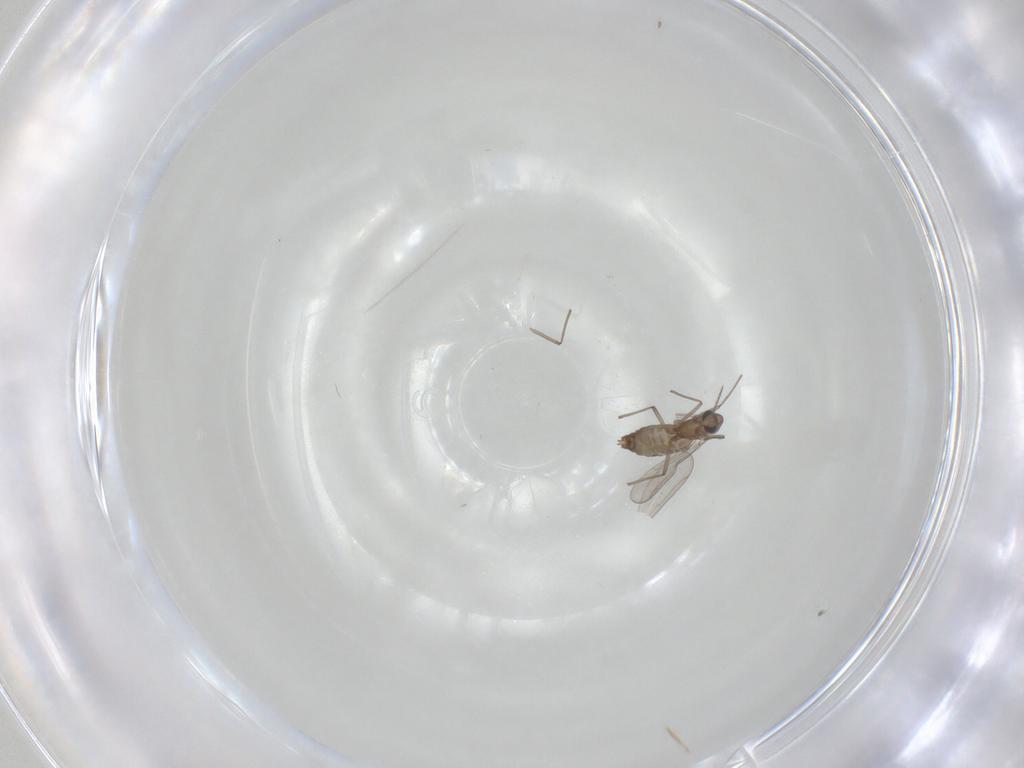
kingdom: Animalia
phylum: Arthropoda
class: Insecta
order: Diptera
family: Chironomidae
